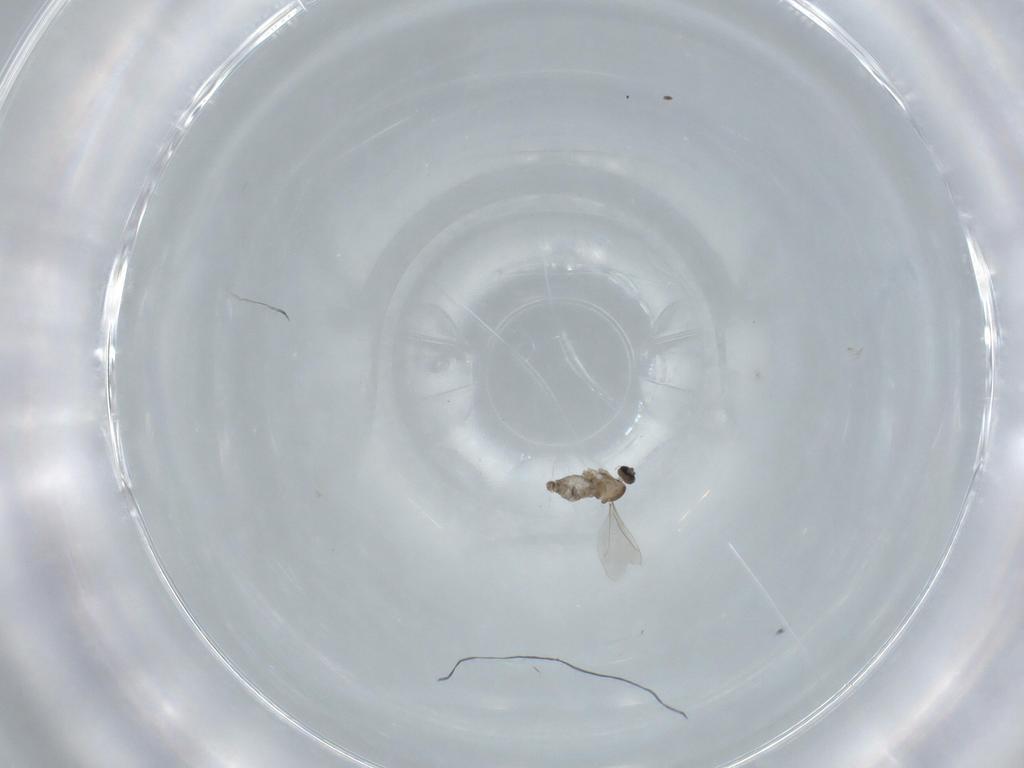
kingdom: Animalia
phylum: Arthropoda
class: Insecta
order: Diptera
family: Cecidomyiidae
